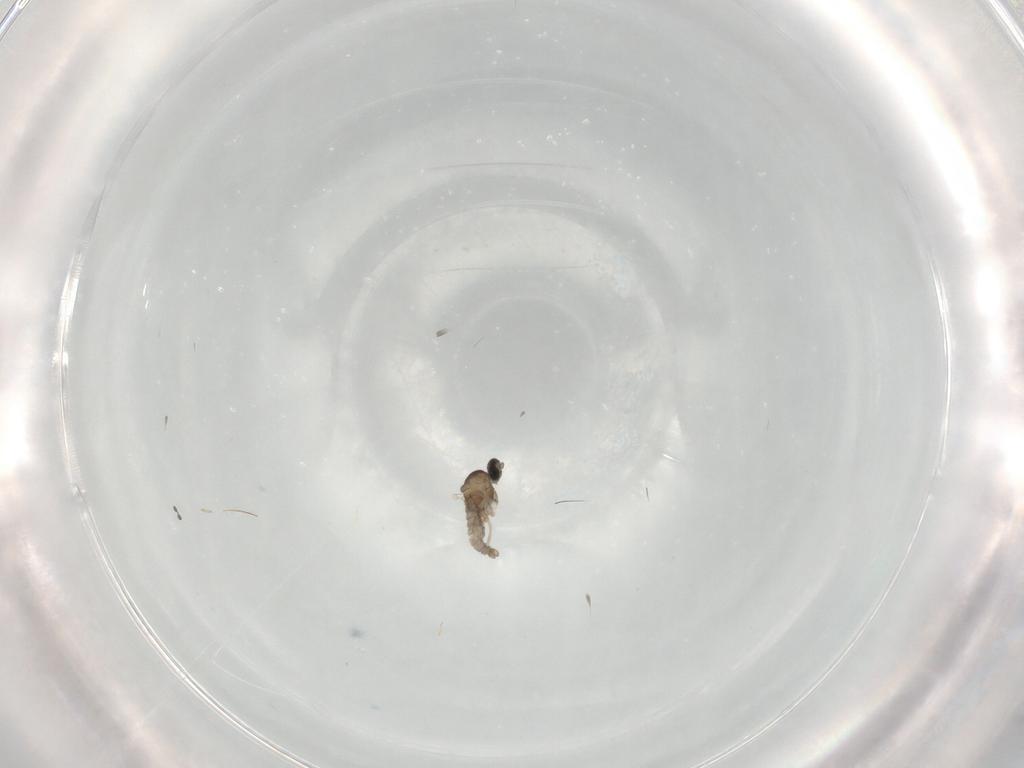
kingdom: Animalia
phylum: Arthropoda
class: Insecta
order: Diptera
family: Cecidomyiidae
